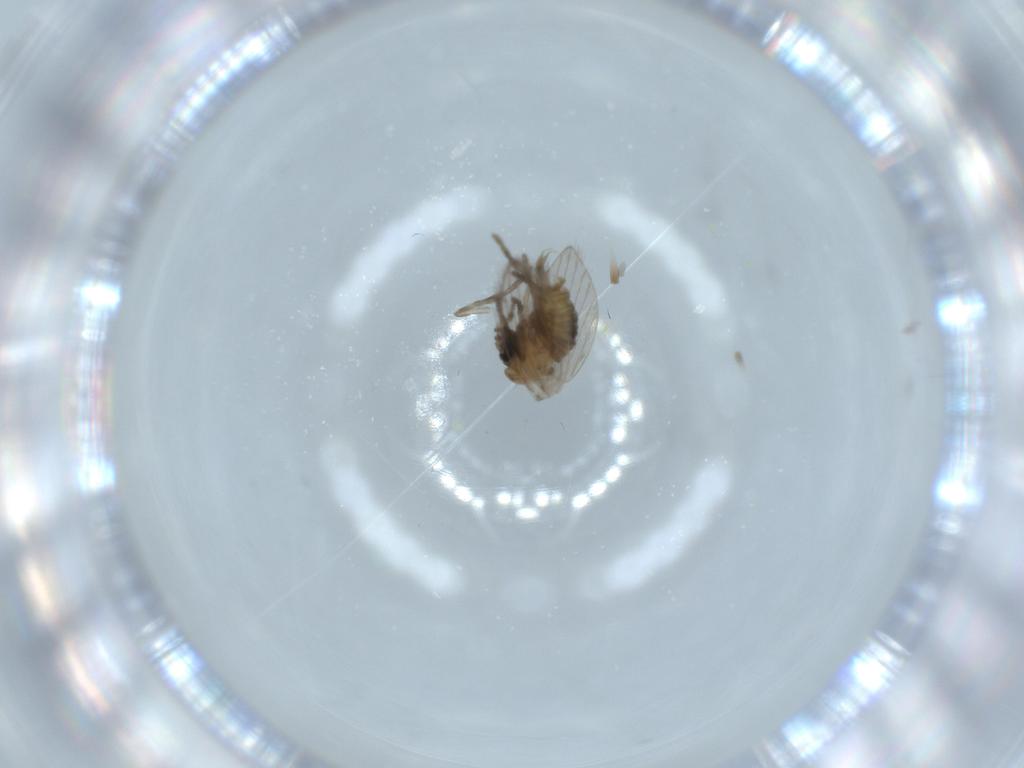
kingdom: Animalia
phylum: Arthropoda
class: Insecta
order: Diptera
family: Psychodidae
